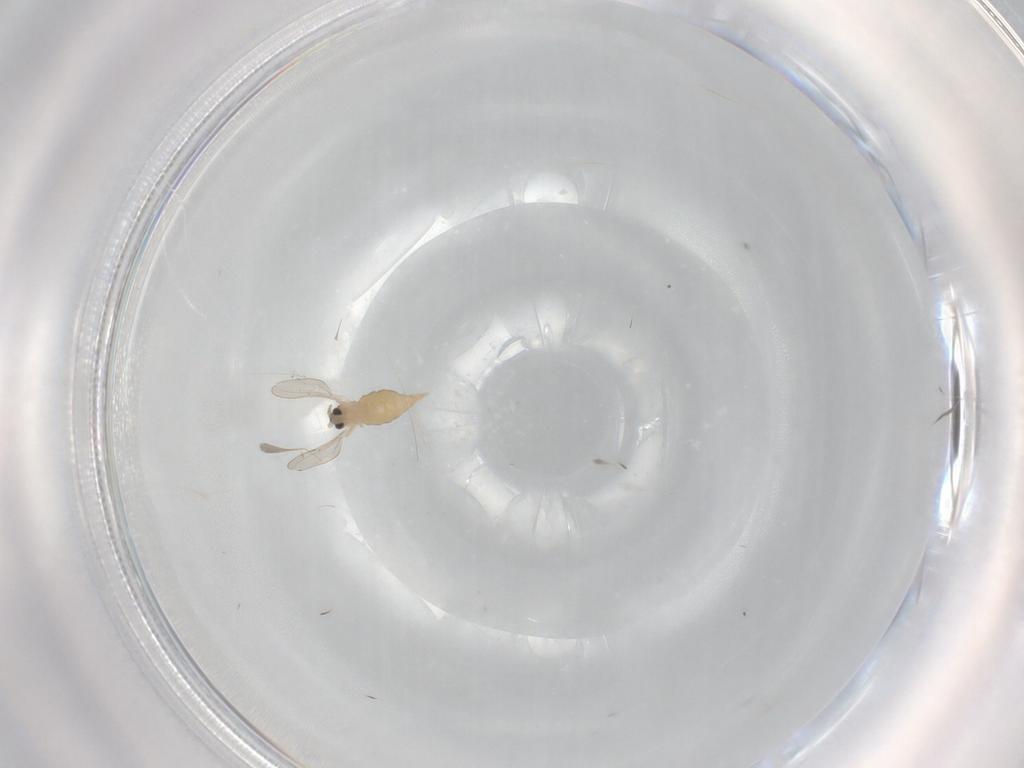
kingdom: Animalia
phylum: Arthropoda
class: Insecta
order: Diptera
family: Cecidomyiidae
